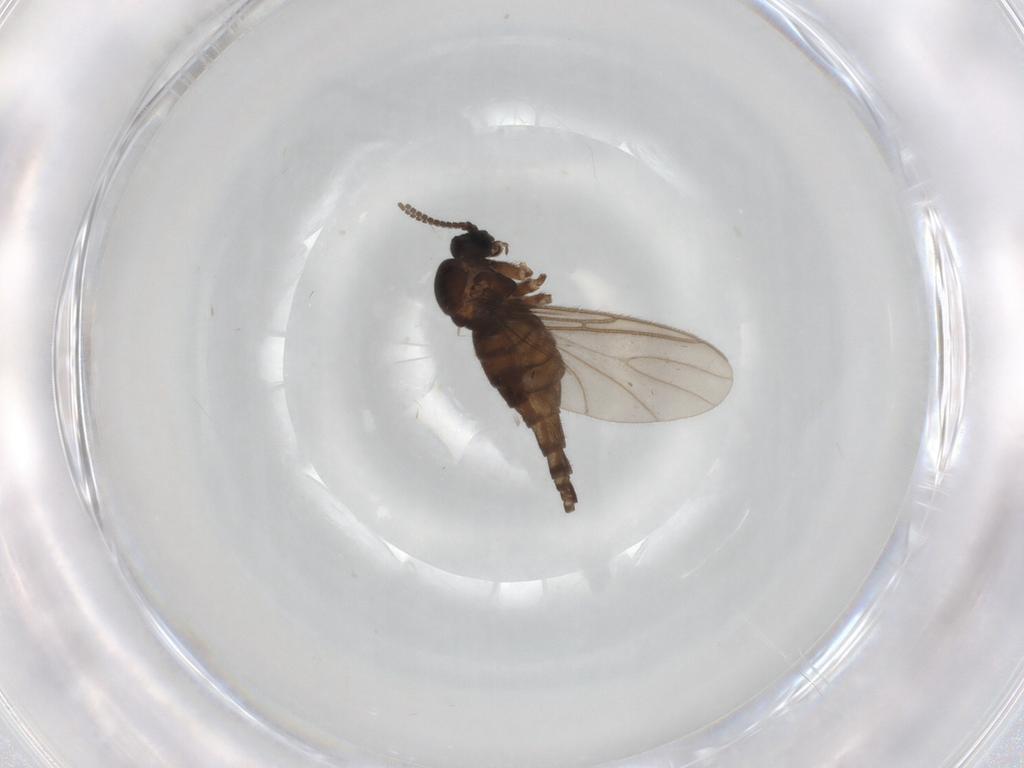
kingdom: Animalia
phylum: Arthropoda
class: Insecta
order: Diptera
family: Sciaridae
